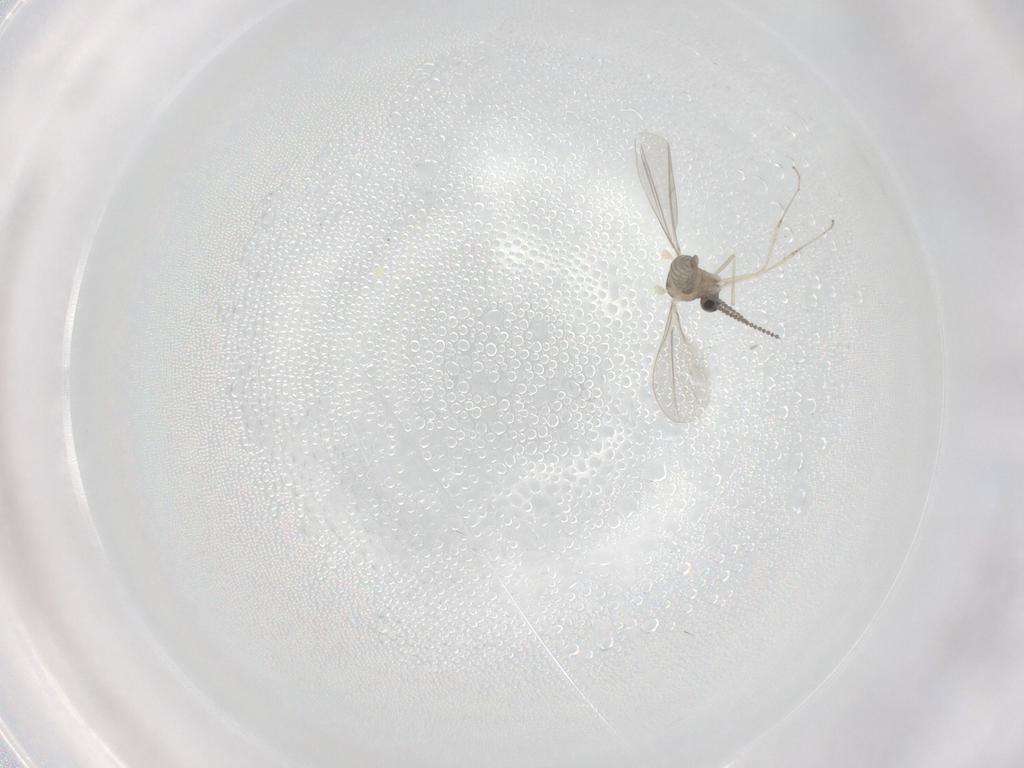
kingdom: Animalia
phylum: Arthropoda
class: Insecta
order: Diptera
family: Cecidomyiidae
